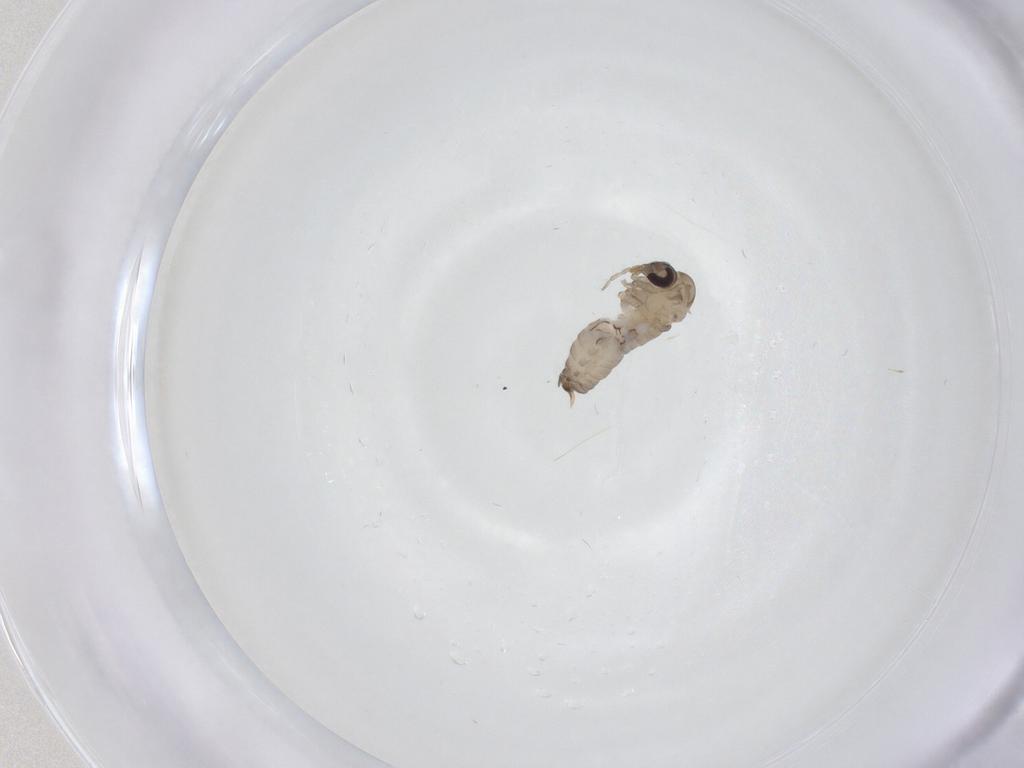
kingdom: Animalia
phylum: Arthropoda
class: Insecta
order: Diptera
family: Psychodidae
